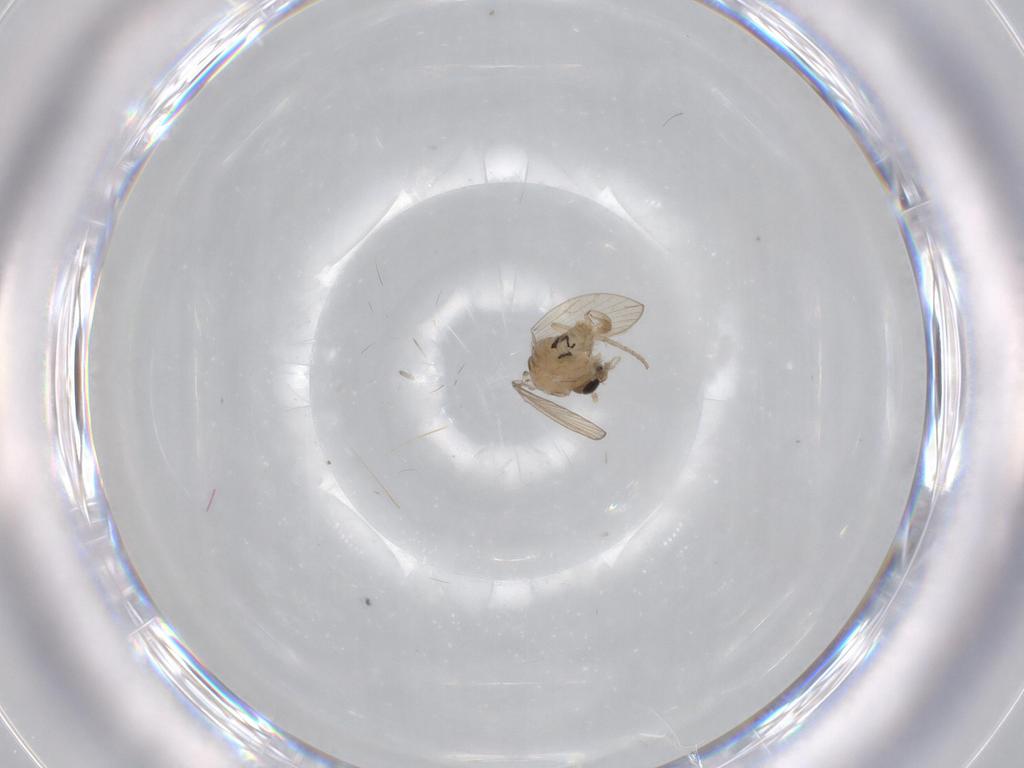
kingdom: Animalia
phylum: Arthropoda
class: Insecta
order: Diptera
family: Psychodidae
